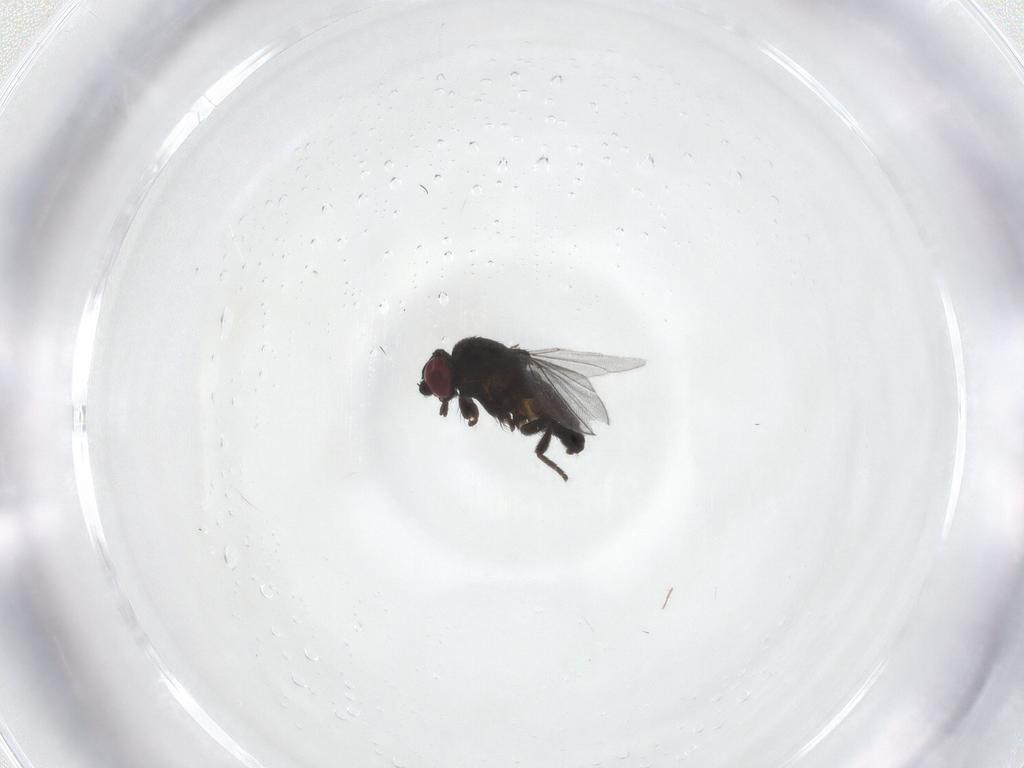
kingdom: Animalia
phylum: Arthropoda
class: Insecta
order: Diptera
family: Milichiidae
